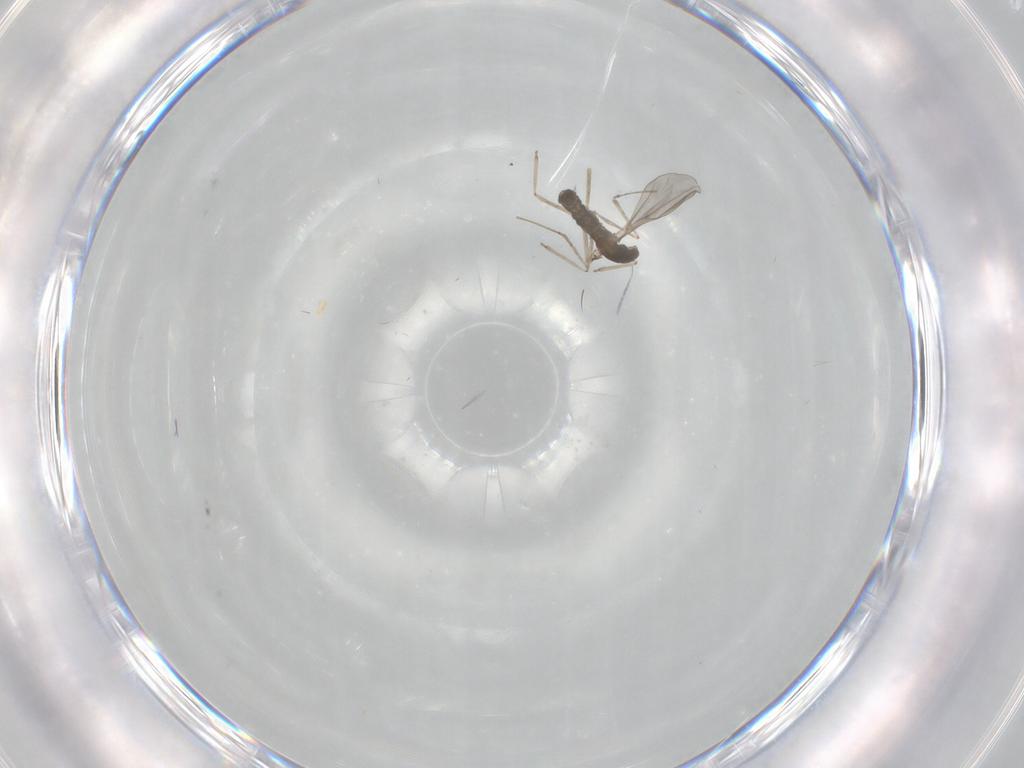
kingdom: Animalia
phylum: Arthropoda
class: Insecta
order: Diptera
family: Cecidomyiidae
